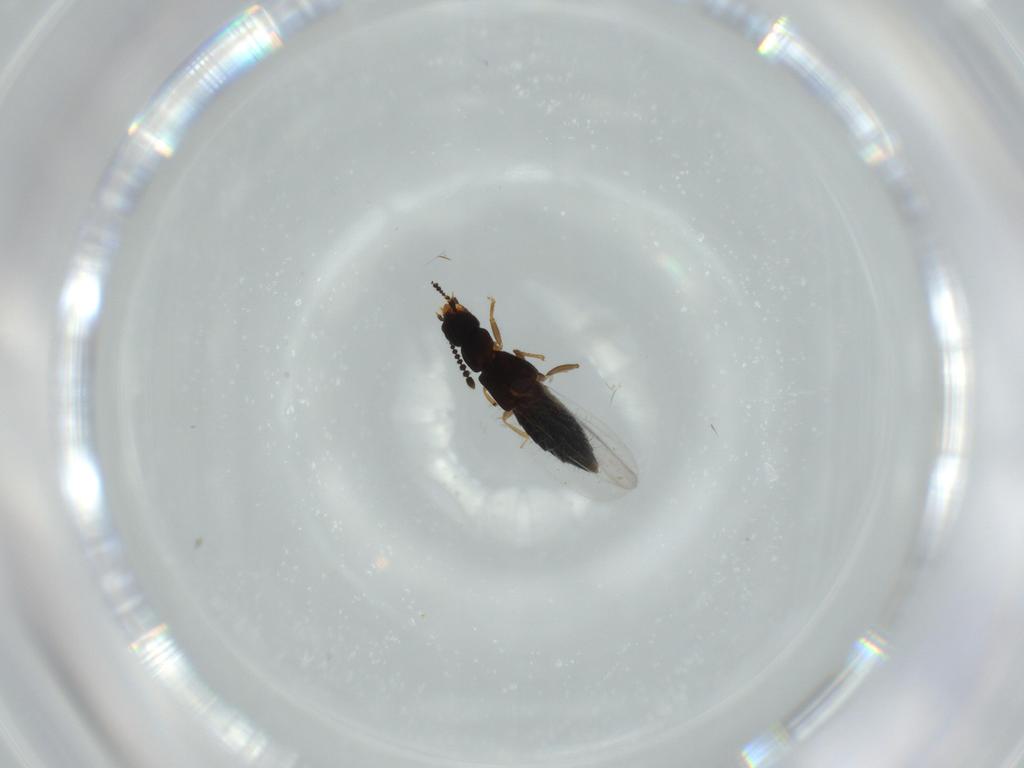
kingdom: Animalia
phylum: Arthropoda
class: Insecta
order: Coleoptera
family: Staphylinidae
